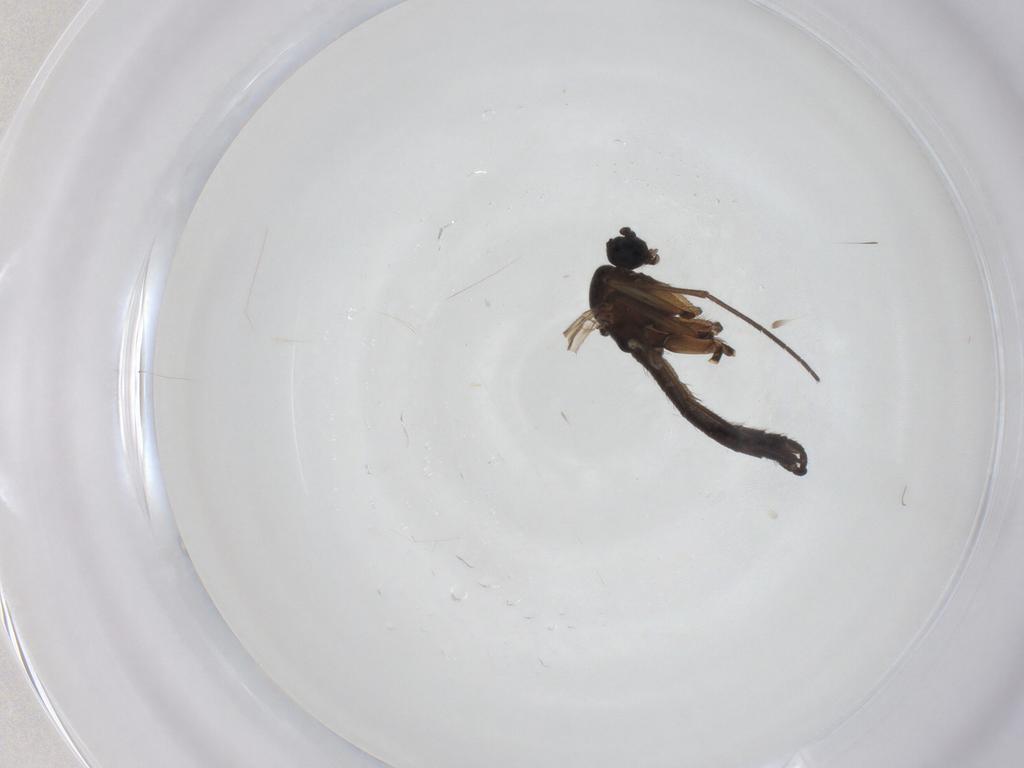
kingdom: Animalia
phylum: Arthropoda
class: Insecta
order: Diptera
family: Sciaridae
